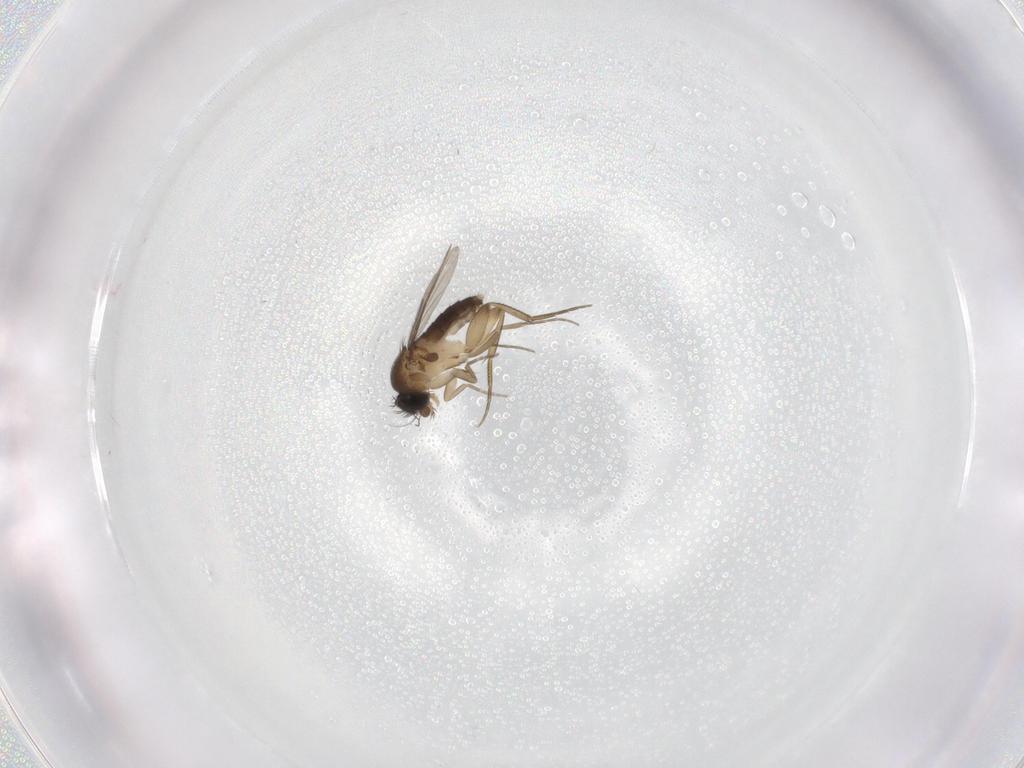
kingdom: Animalia
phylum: Arthropoda
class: Insecta
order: Diptera
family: Phoridae
